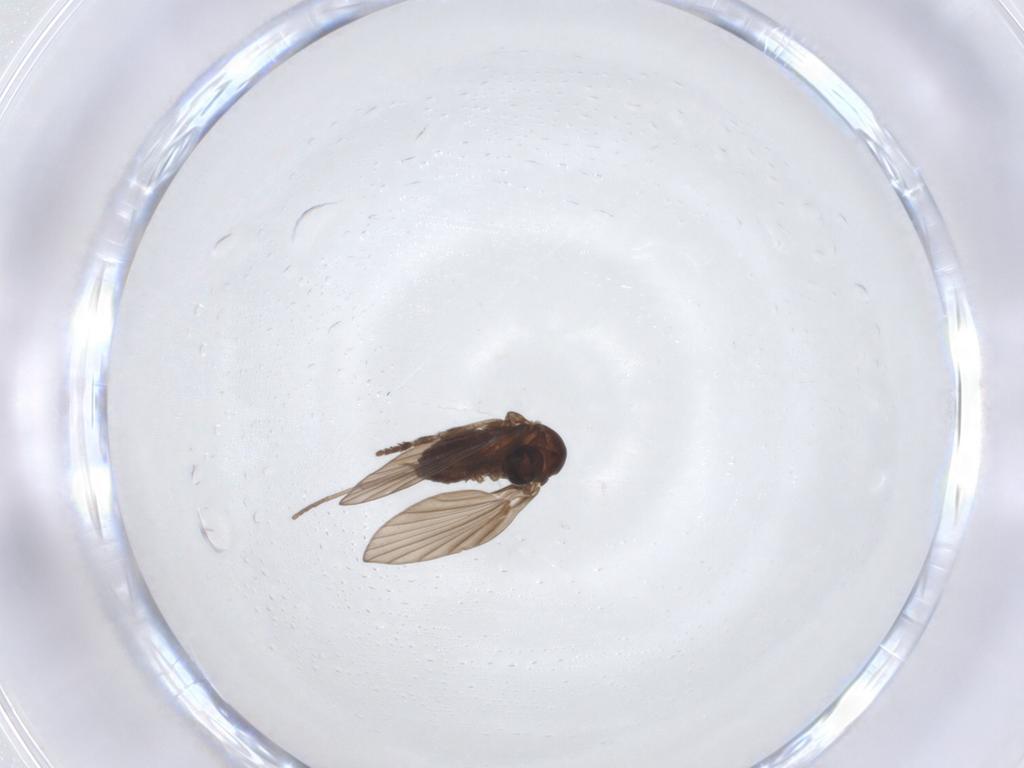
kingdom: Animalia
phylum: Arthropoda
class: Insecta
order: Diptera
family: Psychodidae
